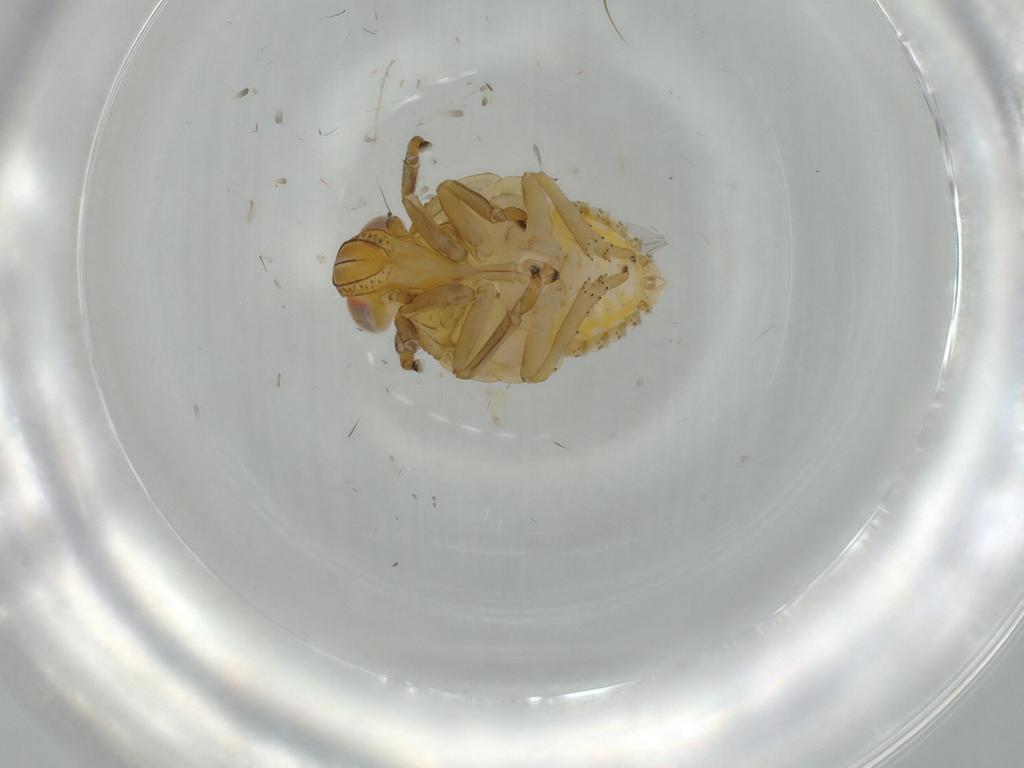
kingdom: Animalia
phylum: Arthropoda
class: Insecta
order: Hemiptera
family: Issidae
